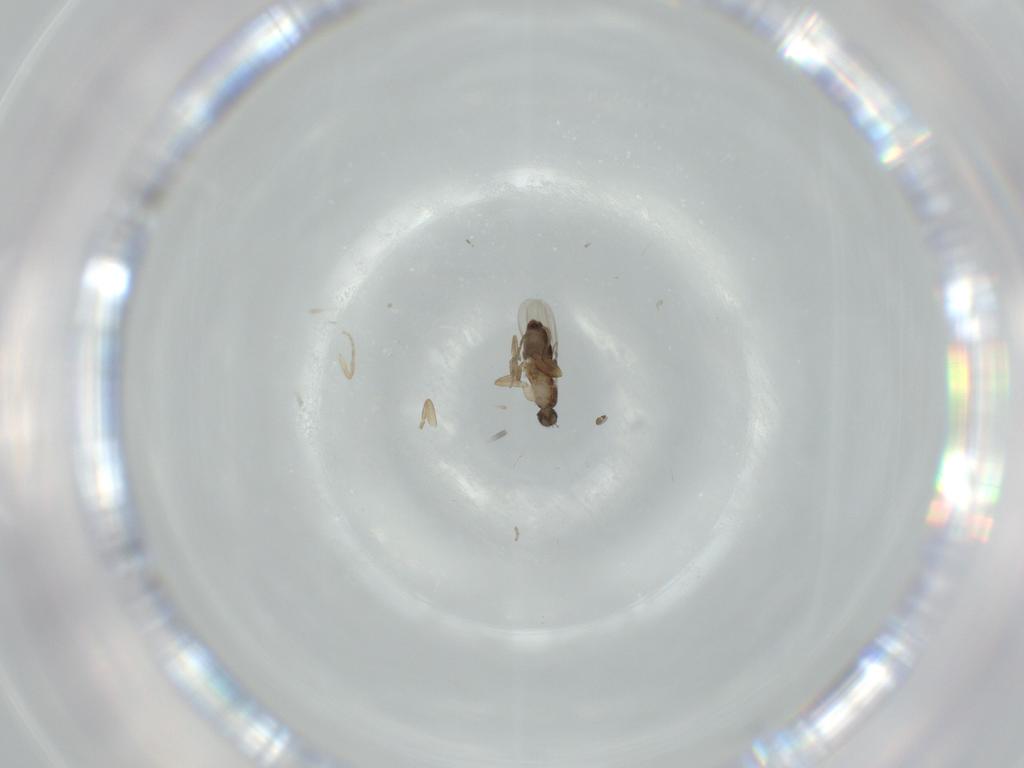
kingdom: Animalia
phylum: Arthropoda
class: Insecta
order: Diptera
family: Phoridae
